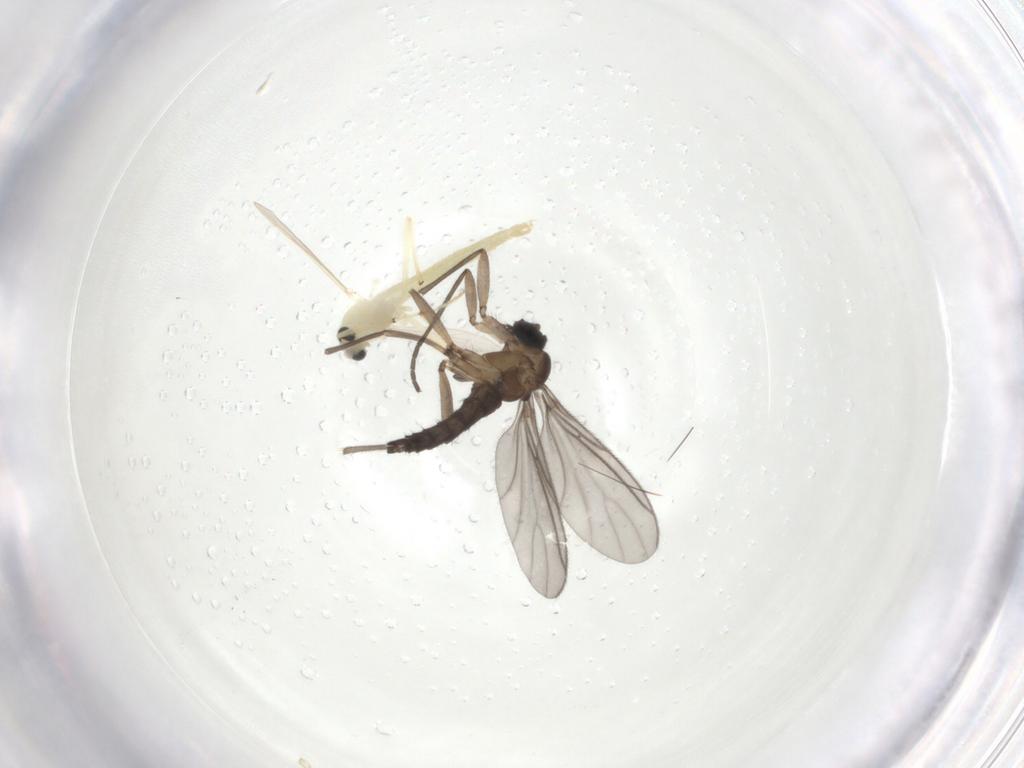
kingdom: Animalia
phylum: Arthropoda
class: Insecta
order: Diptera
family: Sciaridae
